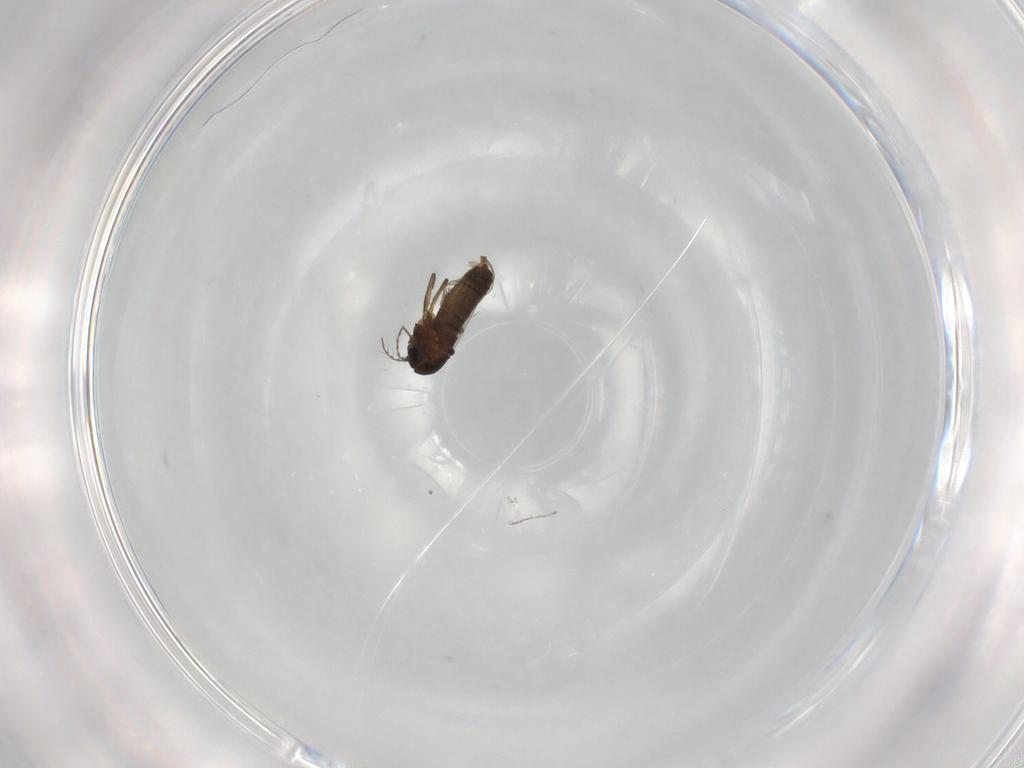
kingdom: Animalia
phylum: Arthropoda
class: Insecta
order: Diptera
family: Chironomidae
